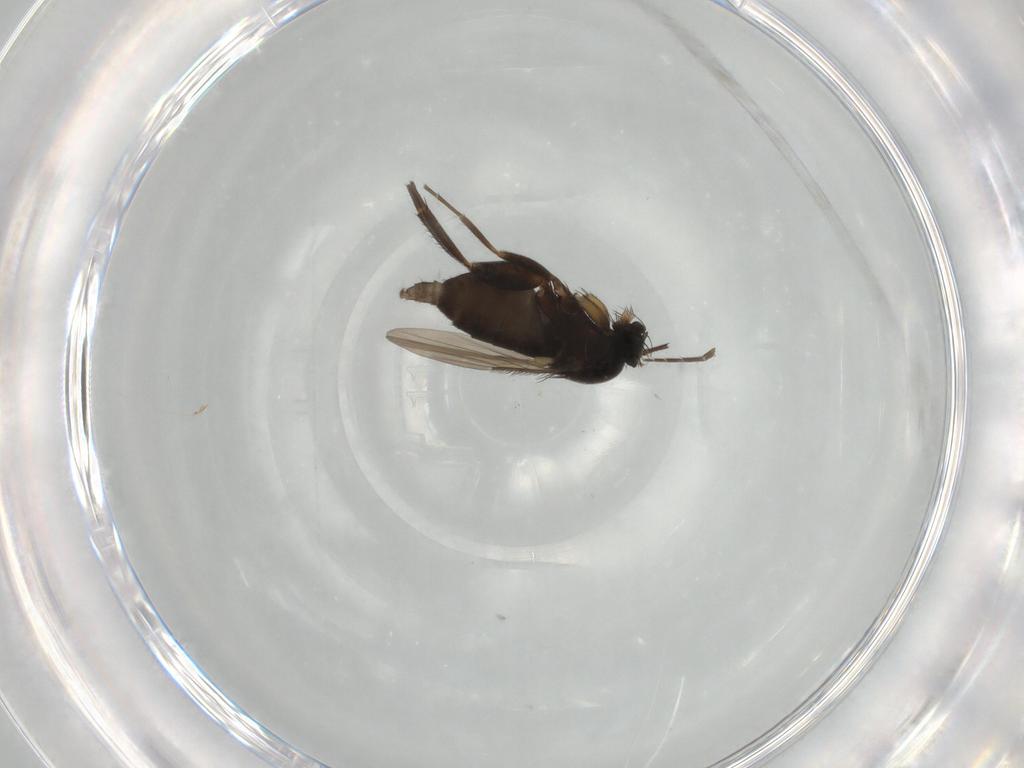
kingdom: Animalia
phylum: Arthropoda
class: Insecta
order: Diptera
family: Phoridae
